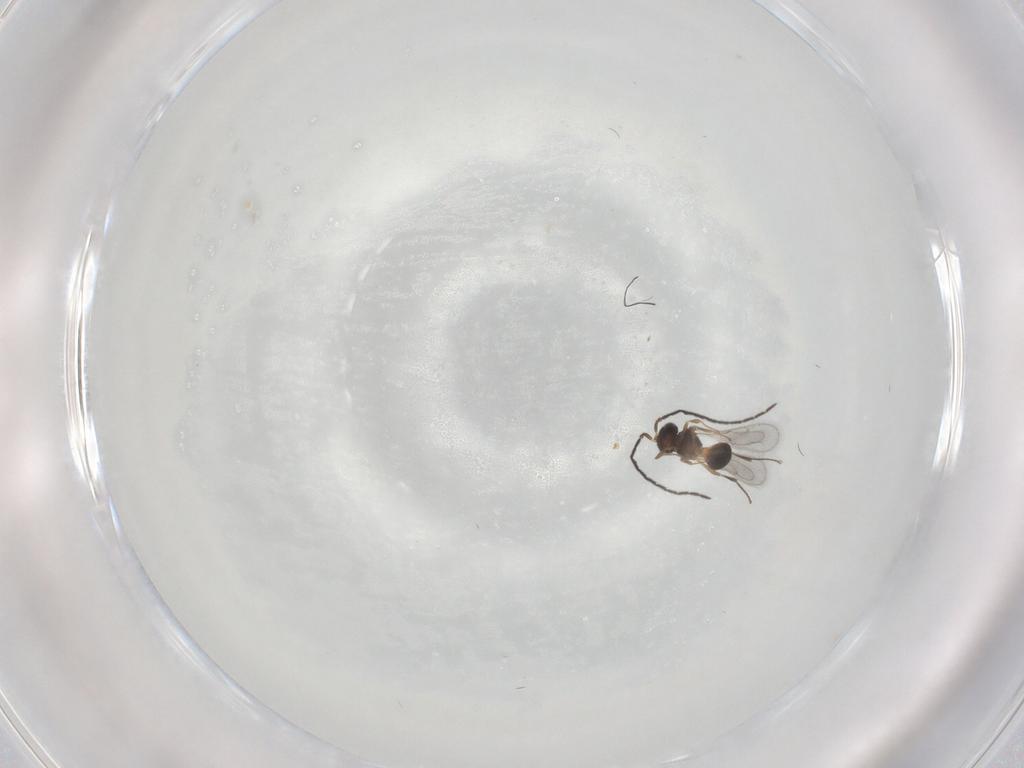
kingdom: Animalia
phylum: Arthropoda
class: Insecta
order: Hymenoptera
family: Scelionidae
